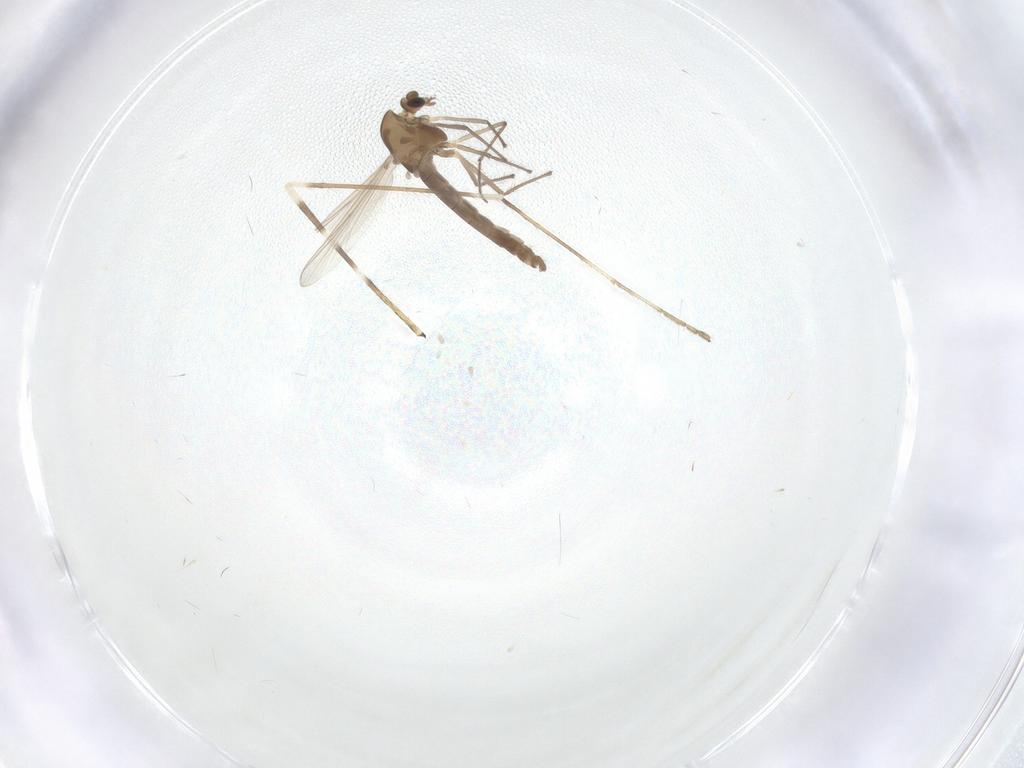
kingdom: Animalia
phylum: Arthropoda
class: Insecta
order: Diptera
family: Chironomidae
